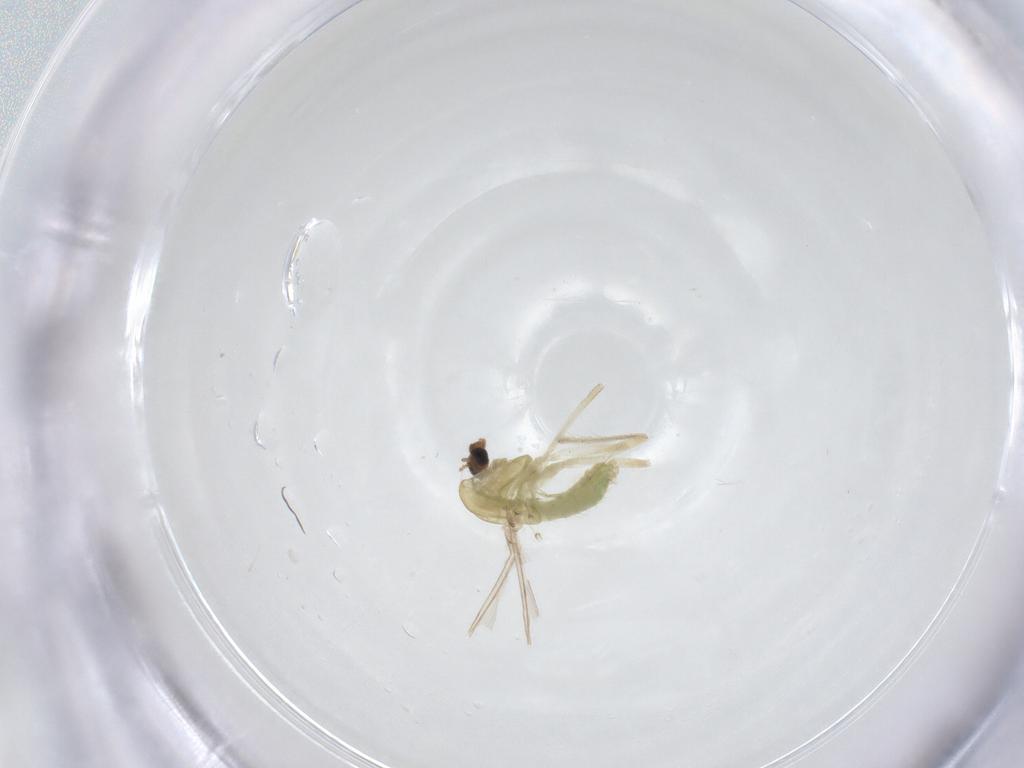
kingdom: Animalia
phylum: Arthropoda
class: Insecta
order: Diptera
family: Chironomidae
